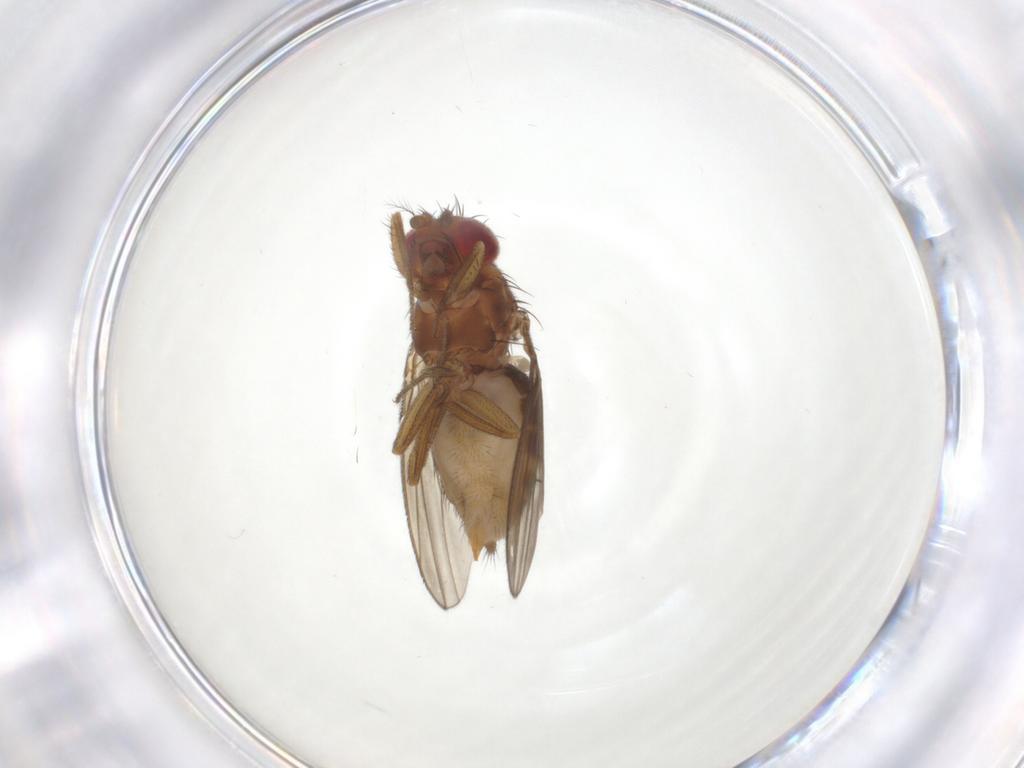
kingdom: Animalia
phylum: Arthropoda
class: Insecta
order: Diptera
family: Drosophilidae
